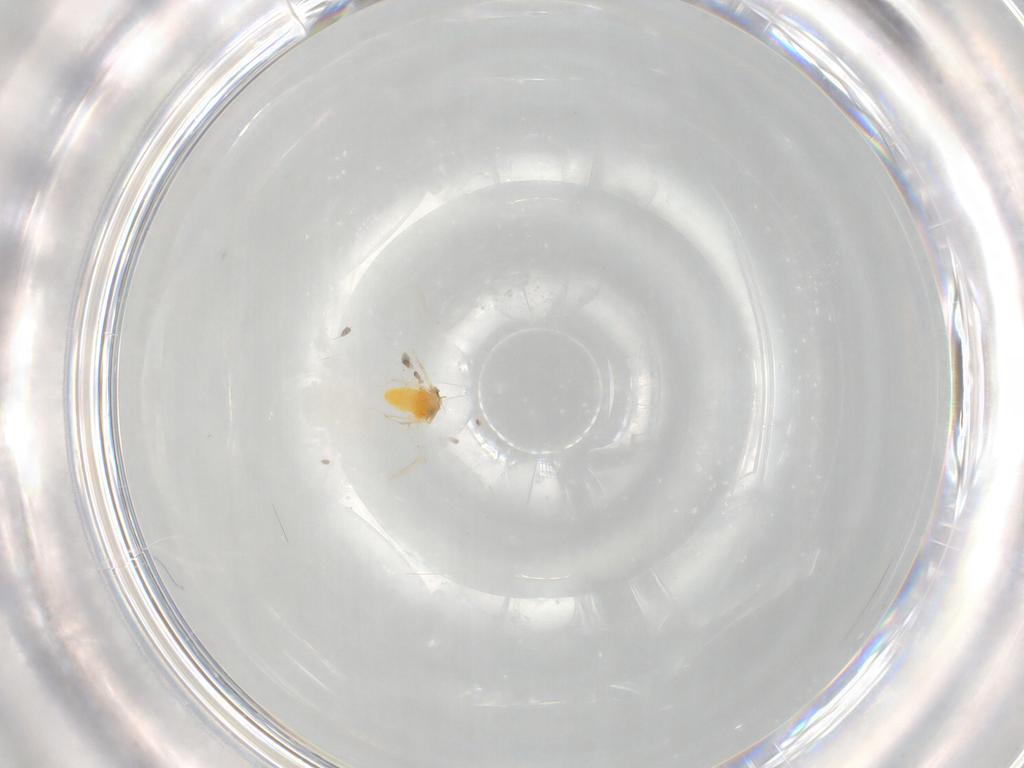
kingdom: Animalia
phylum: Arthropoda
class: Insecta
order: Hemiptera
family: Aleyrodidae
